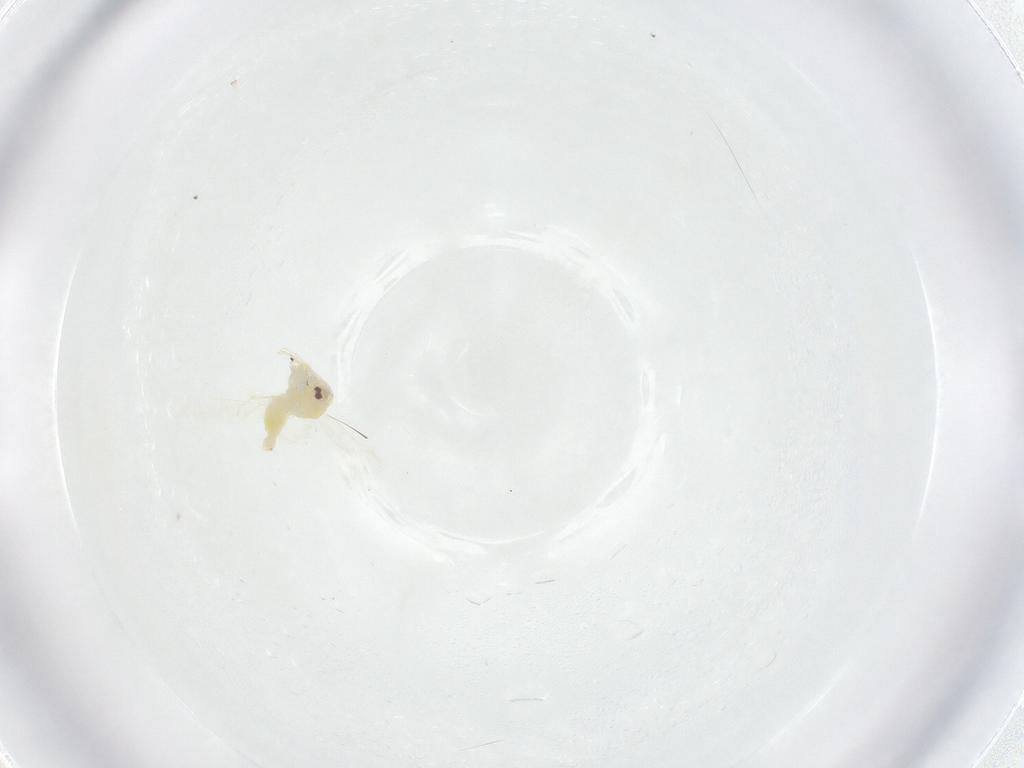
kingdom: Animalia
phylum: Arthropoda
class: Insecta
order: Hemiptera
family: Aleyrodidae
